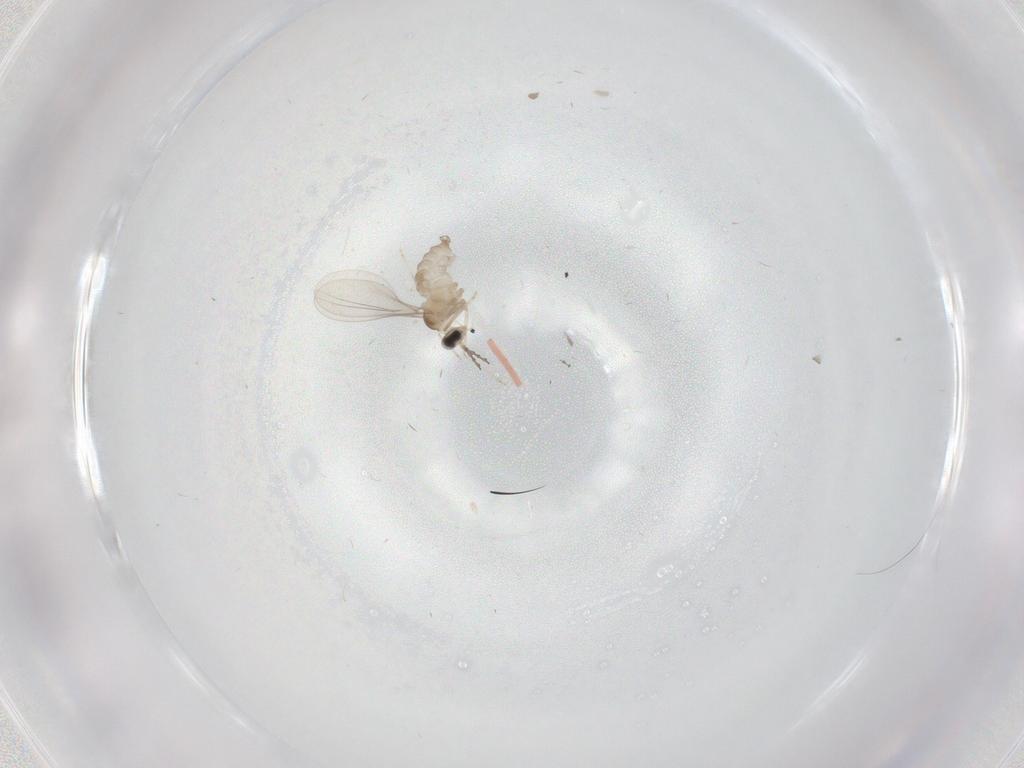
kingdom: Animalia
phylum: Arthropoda
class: Insecta
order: Diptera
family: Cecidomyiidae
